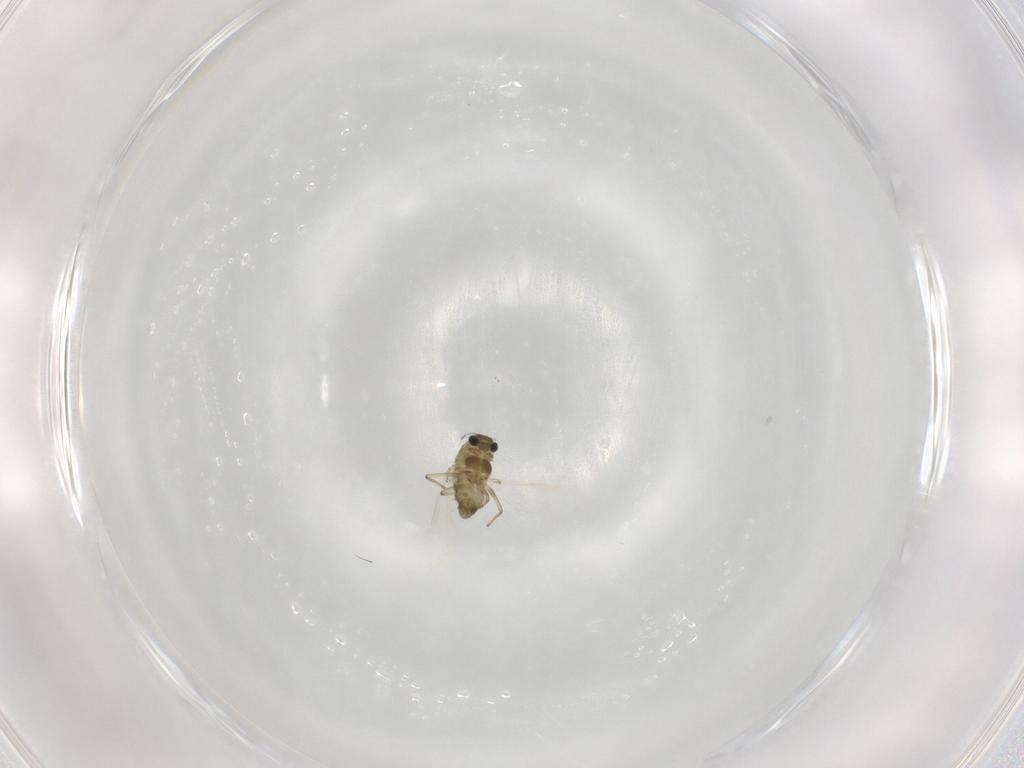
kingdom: Animalia
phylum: Arthropoda
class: Insecta
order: Diptera
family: Chironomidae
